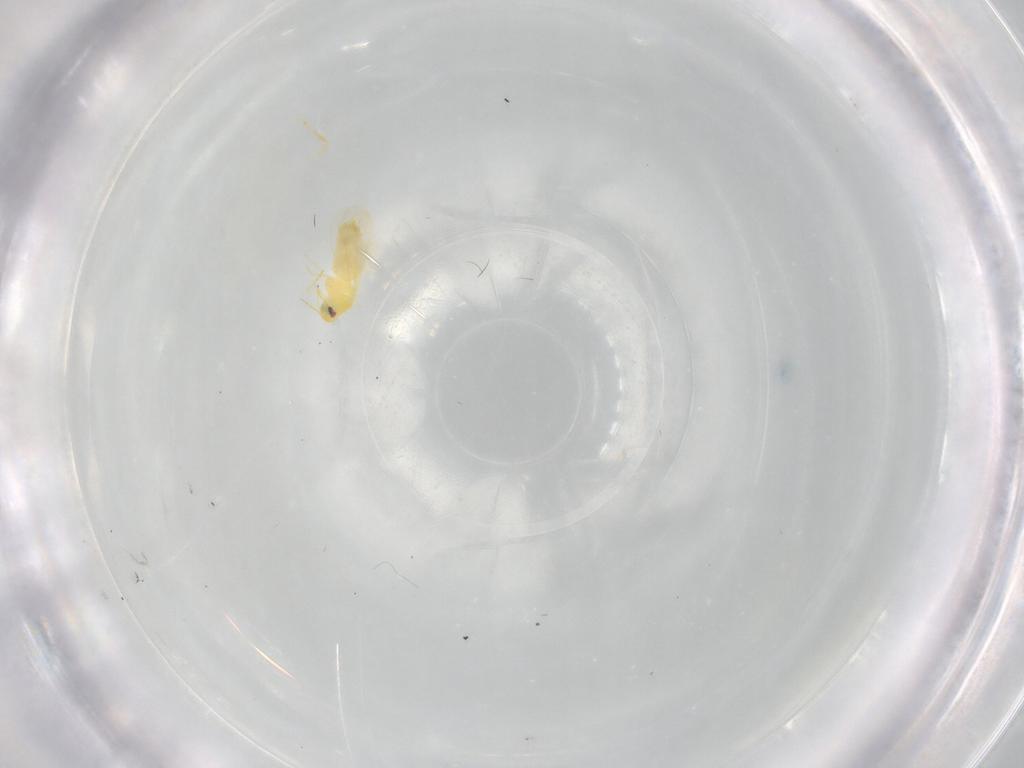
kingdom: Animalia
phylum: Arthropoda
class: Insecta
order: Hemiptera
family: Aleyrodidae
